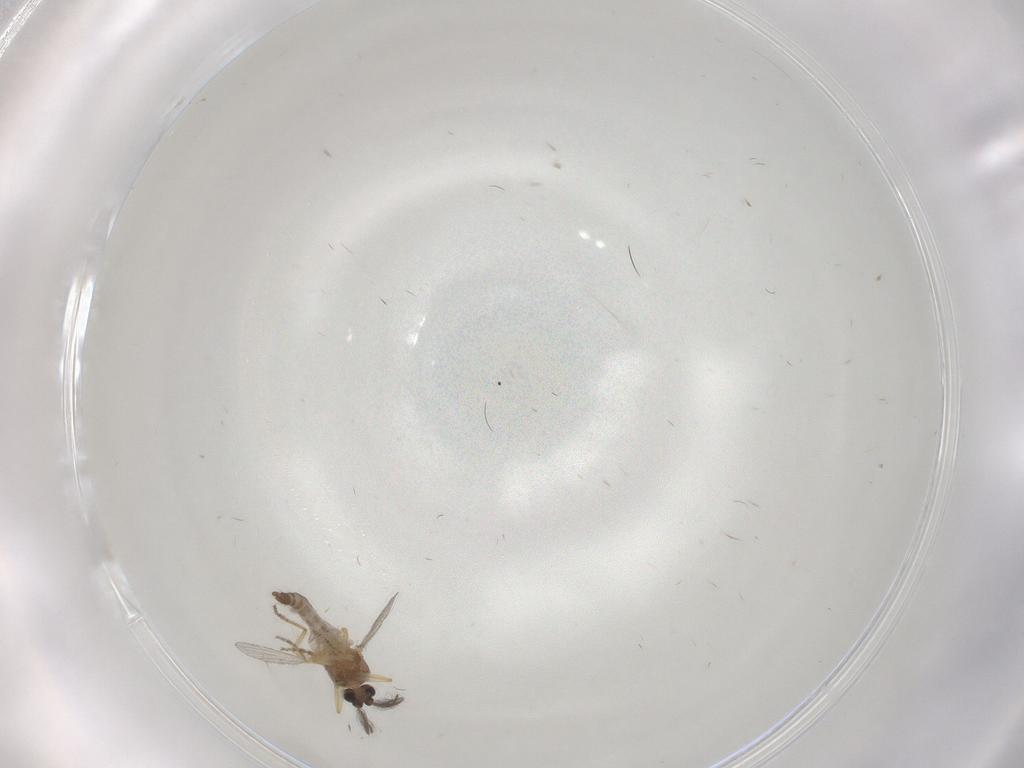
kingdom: Animalia
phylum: Arthropoda
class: Insecta
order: Diptera
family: Ceratopogonidae
